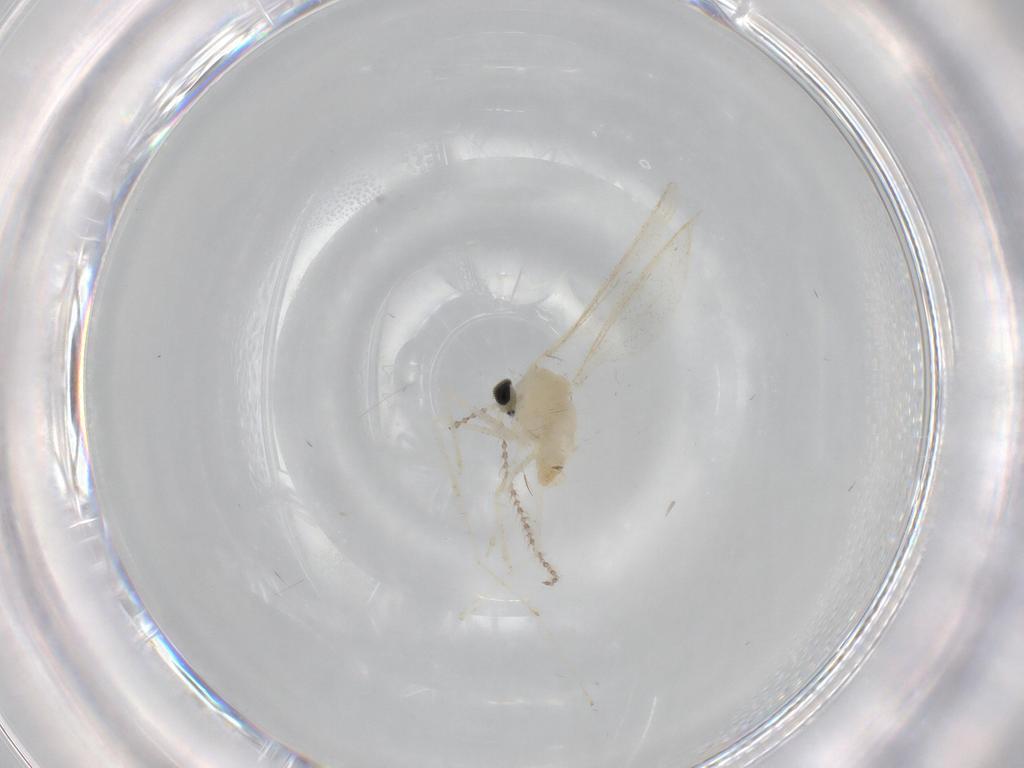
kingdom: Animalia
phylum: Arthropoda
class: Insecta
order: Diptera
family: Cecidomyiidae
